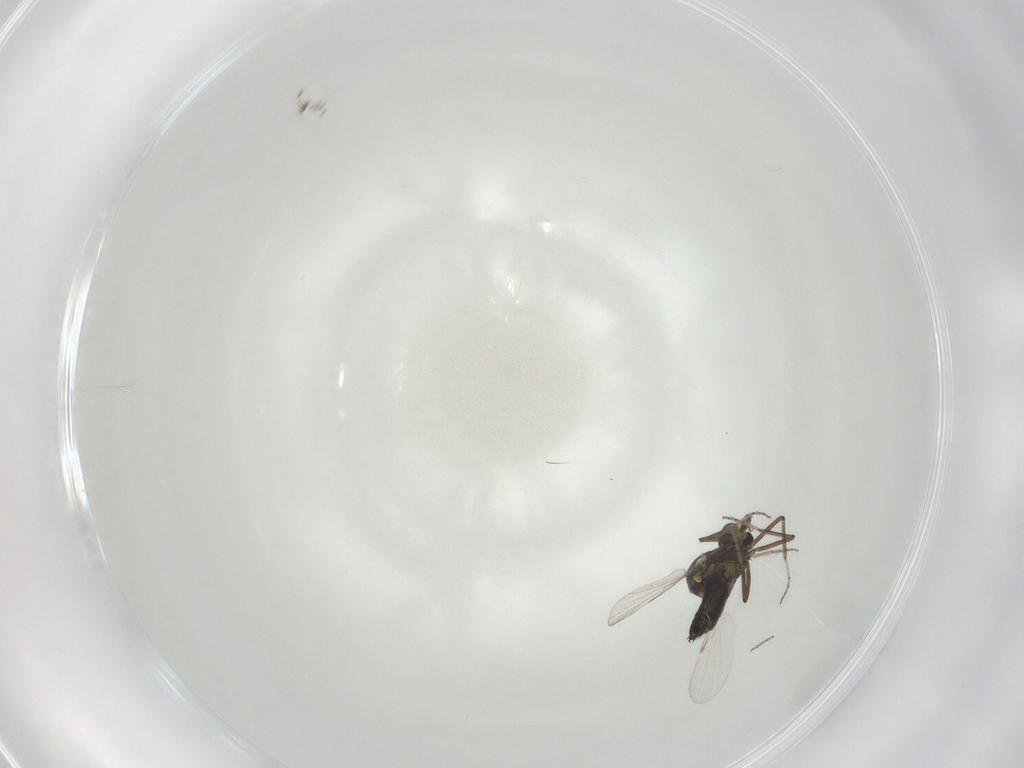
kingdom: Animalia
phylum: Arthropoda
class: Insecta
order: Diptera
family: Ceratopogonidae
